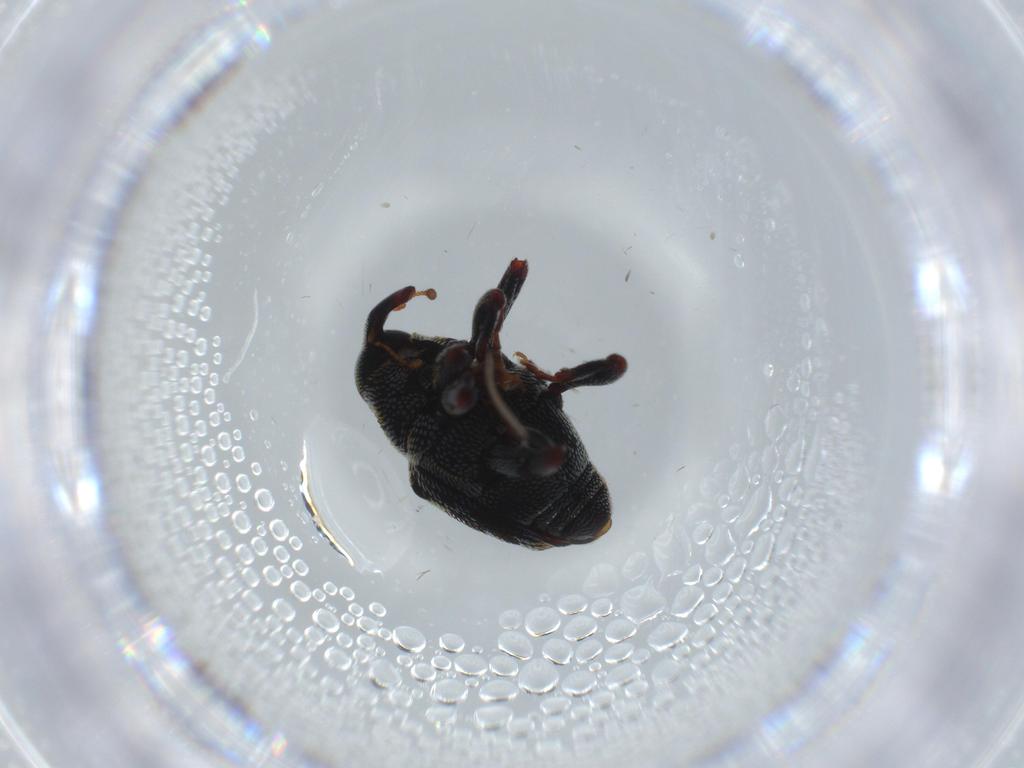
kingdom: Animalia
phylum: Arthropoda
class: Insecta
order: Coleoptera
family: Curculionidae
